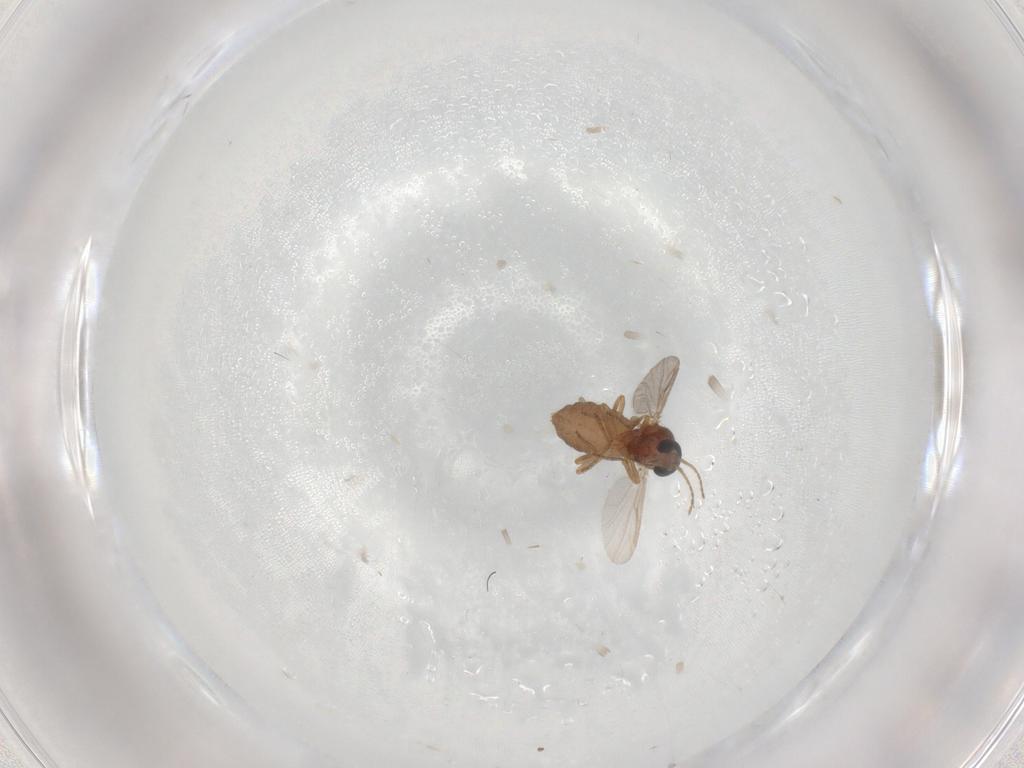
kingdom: Animalia
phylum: Arthropoda
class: Insecta
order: Diptera
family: Ceratopogonidae
